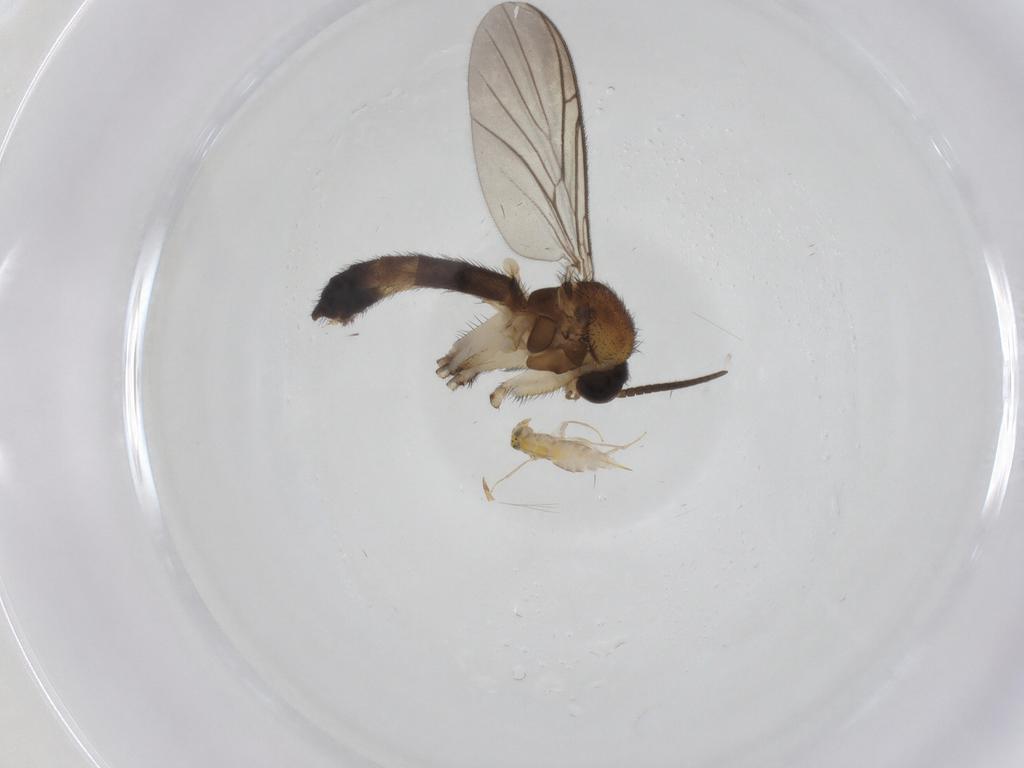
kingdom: Animalia
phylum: Arthropoda
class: Insecta
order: Diptera
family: Keroplatidae
